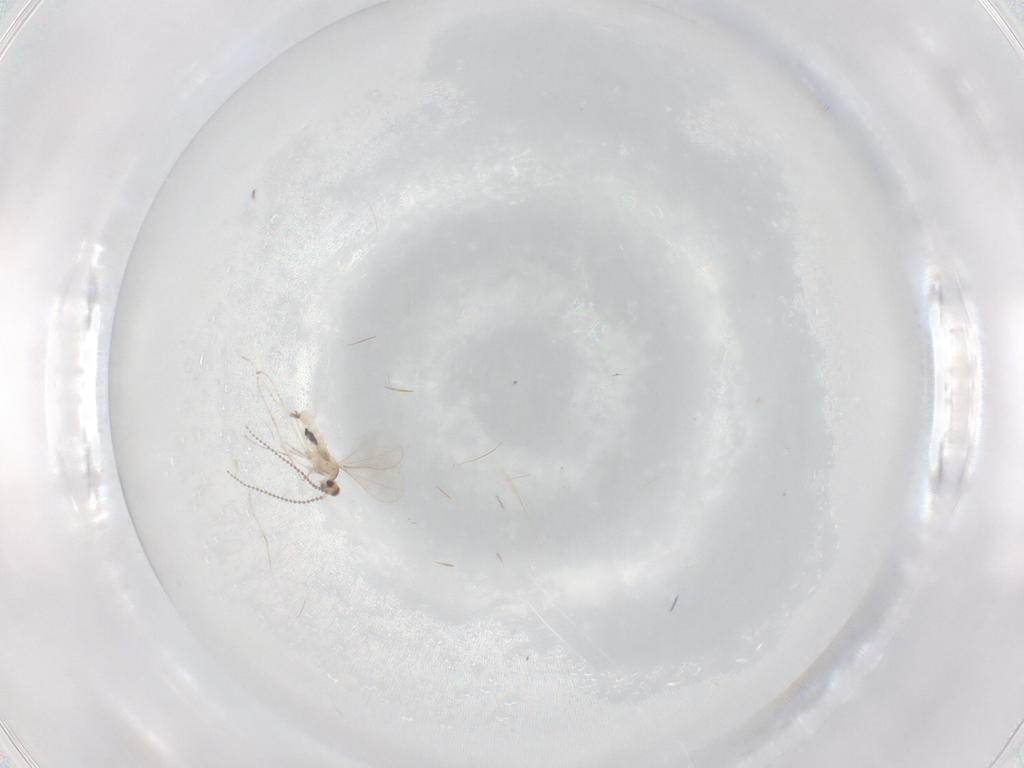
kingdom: Animalia
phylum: Arthropoda
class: Insecta
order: Diptera
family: Cecidomyiidae
